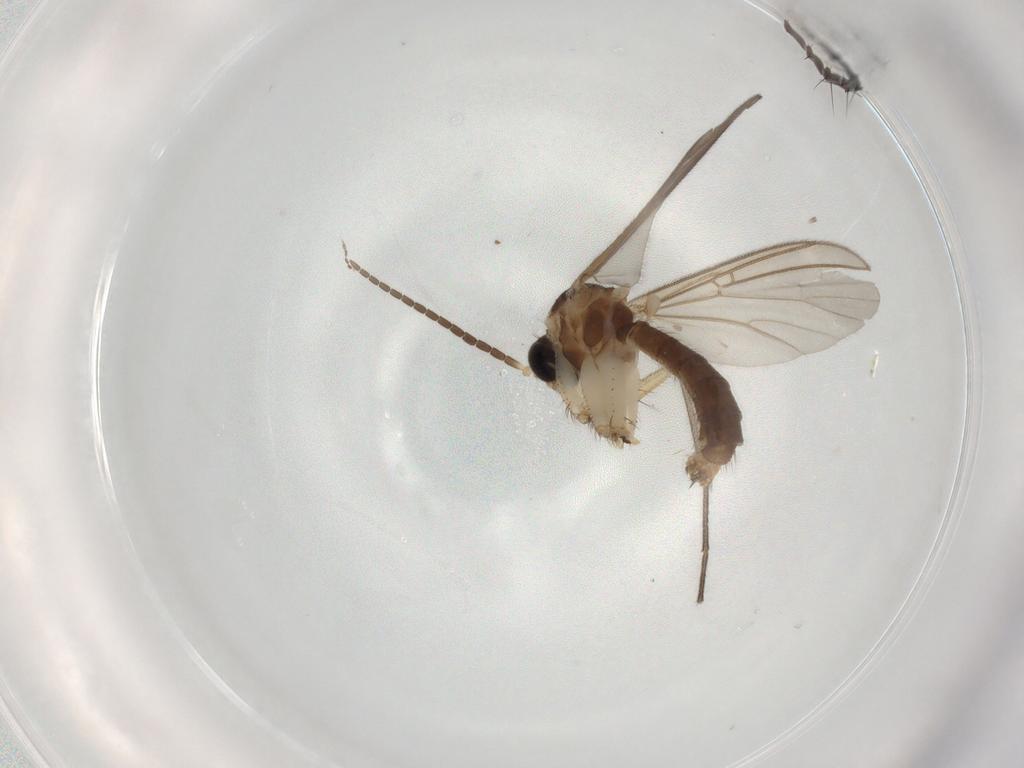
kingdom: Animalia
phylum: Arthropoda
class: Insecta
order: Diptera
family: Cecidomyiidae
